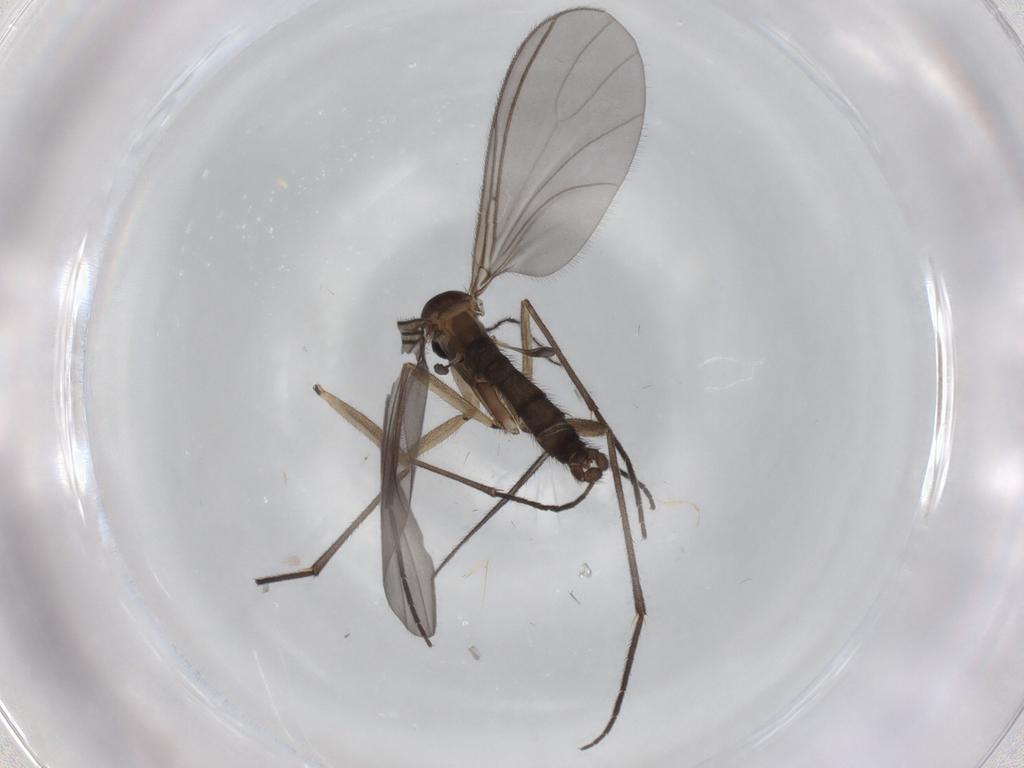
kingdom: Animalia
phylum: Arthropoda
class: Insecta
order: Diptera
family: Sciaridae
